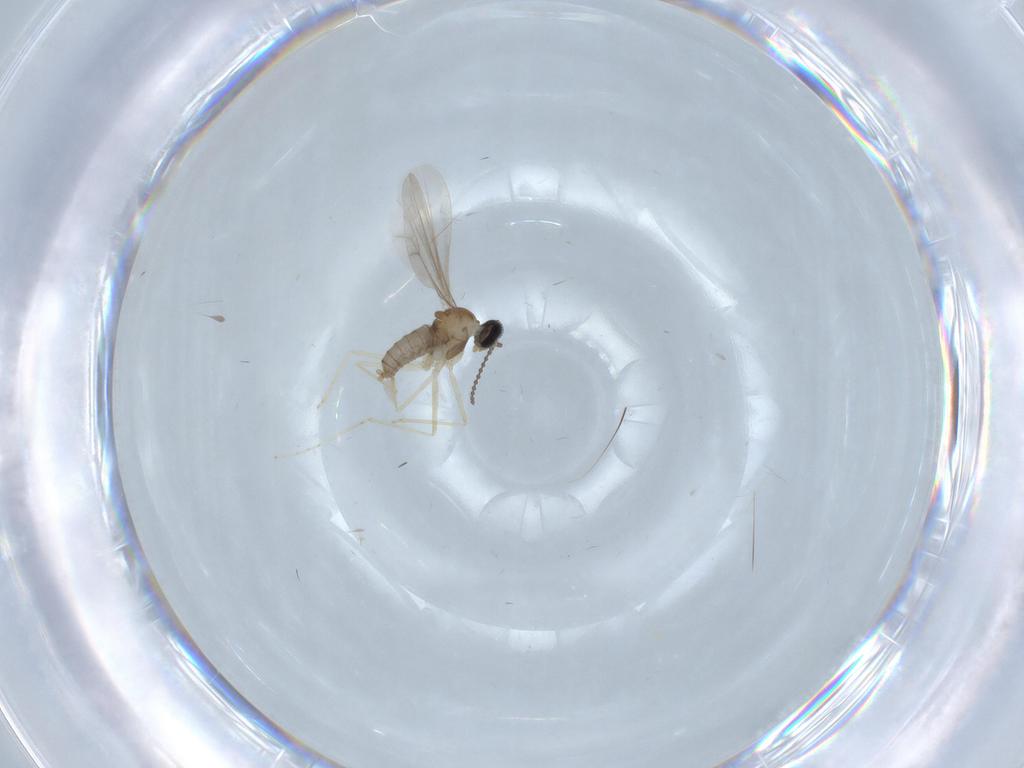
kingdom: Animalia
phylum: Arthropoda
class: Insecta
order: Diptera
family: Cecidomyiidae
